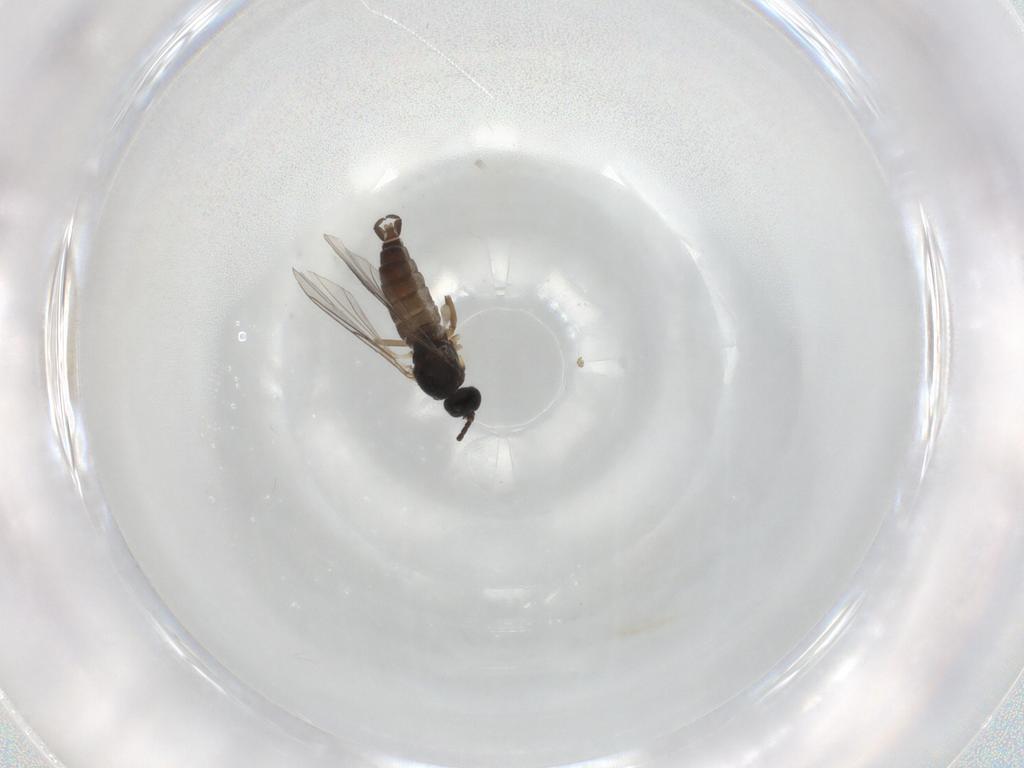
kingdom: Animalia
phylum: Arthropoda
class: Insecta
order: Diptera
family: Sciaridae
